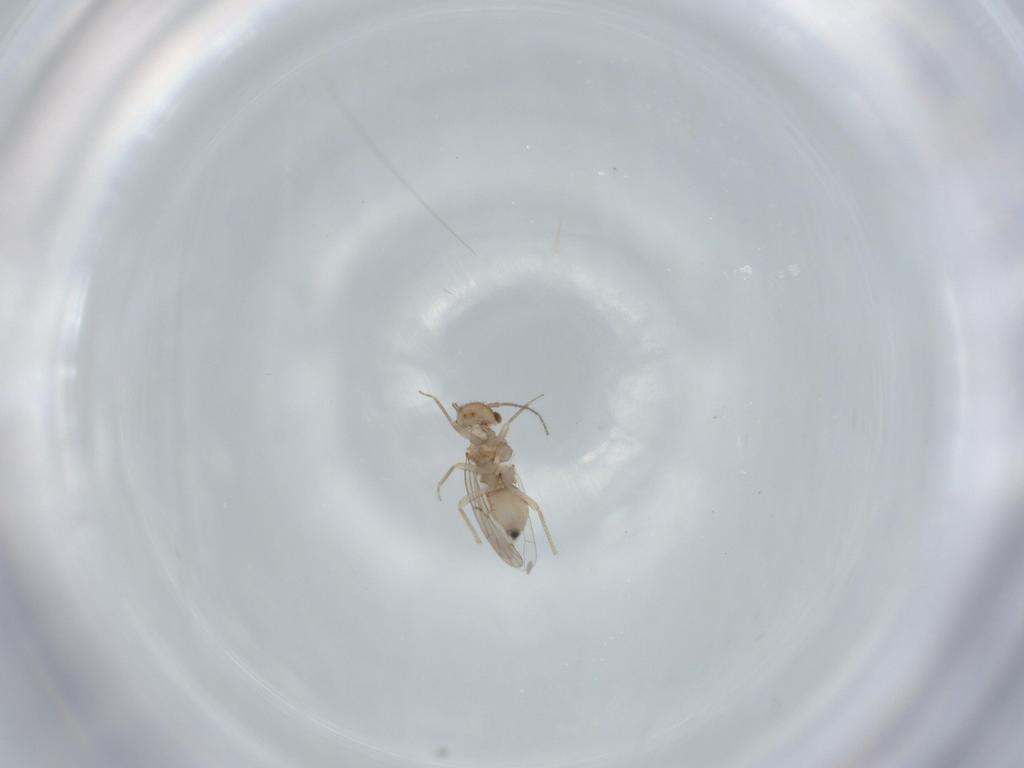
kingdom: Animalia
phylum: Arthropoda
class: Insecta
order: Psocodea
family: Ectopsocidae
